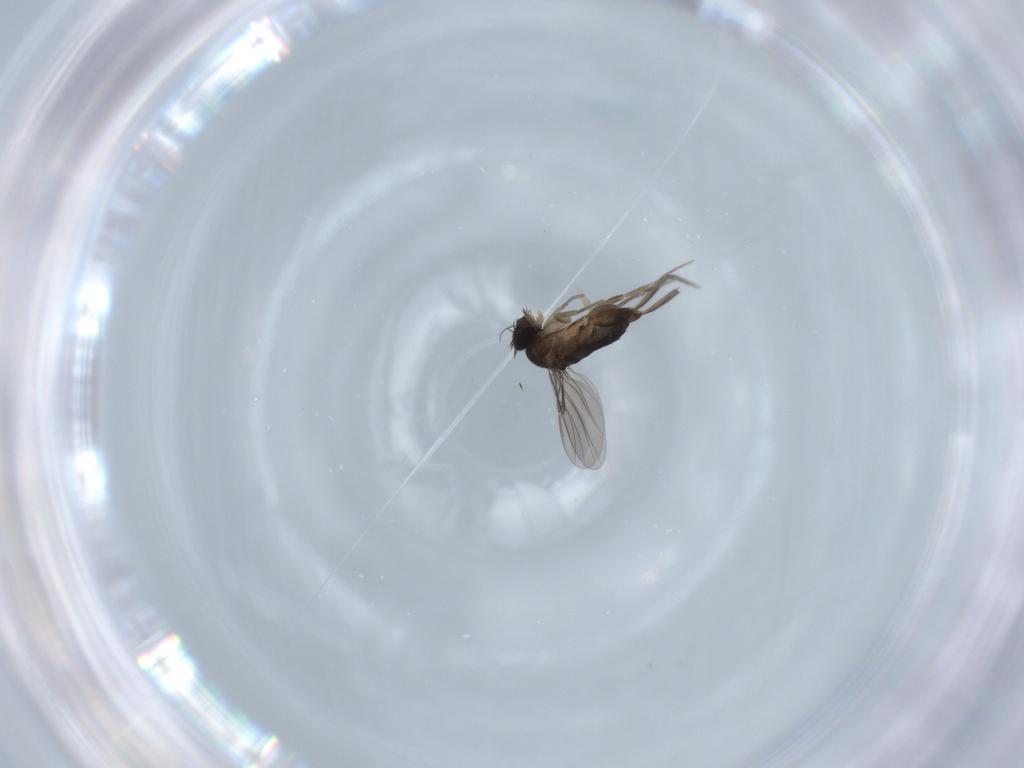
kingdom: Animalia
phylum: Arthropoda
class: Insecta
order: Diptera
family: Phoridae
